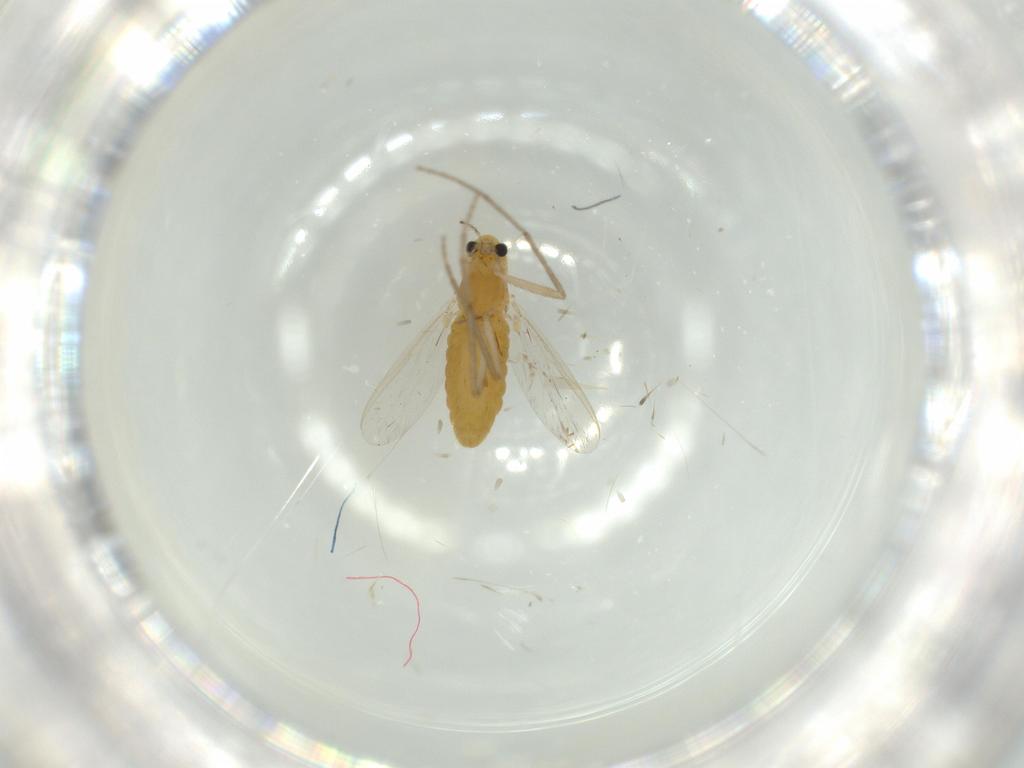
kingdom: Animalia
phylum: Arthropoda
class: Insecta
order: Diptera
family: Chironomidae
